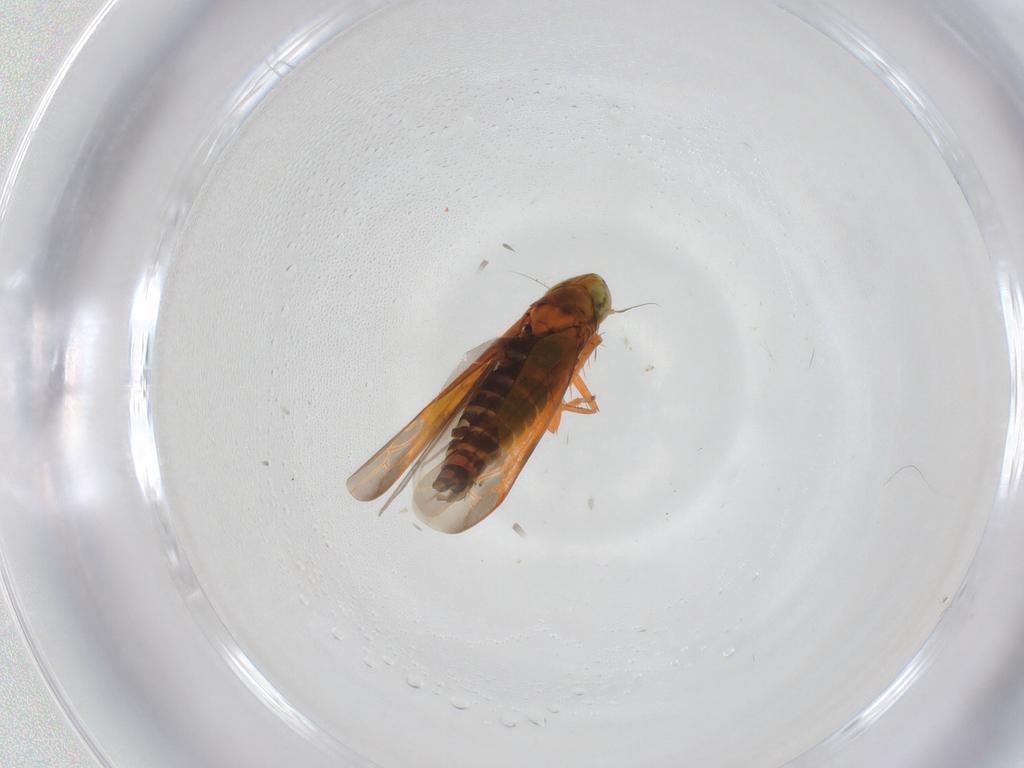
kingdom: Animalia
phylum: Arthropoda
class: Insecta
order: Hemiptera
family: Cicadellidae
